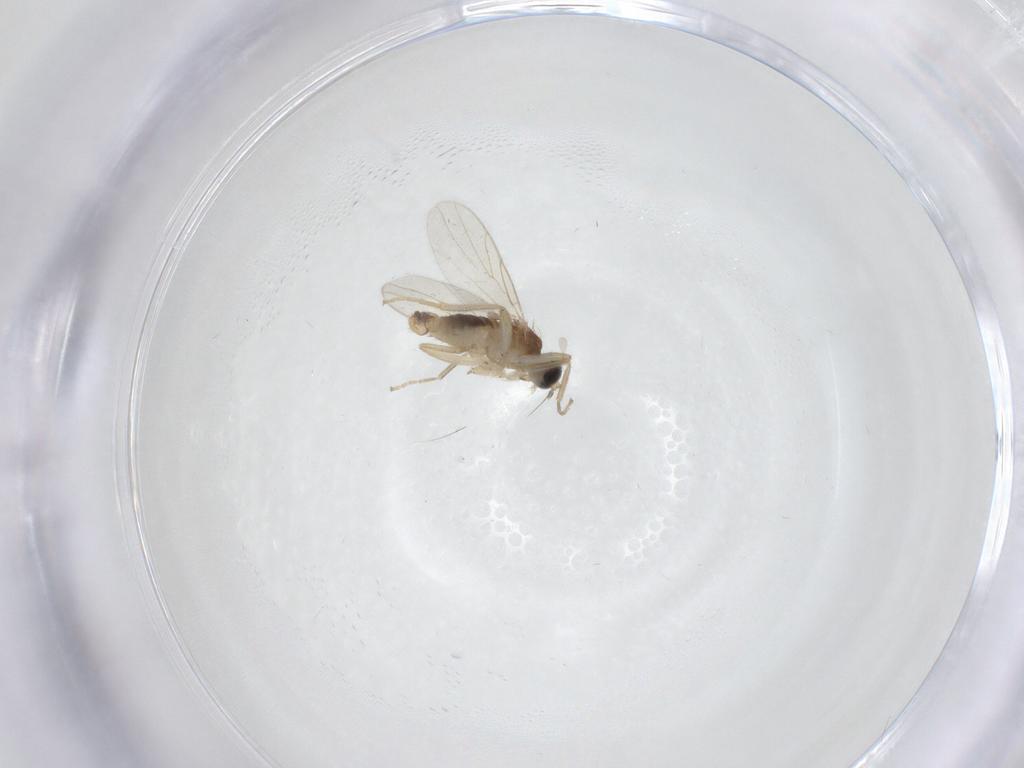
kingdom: Animalia
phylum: Arthropoda
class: Insecta
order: Diptera
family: Hybotidae
